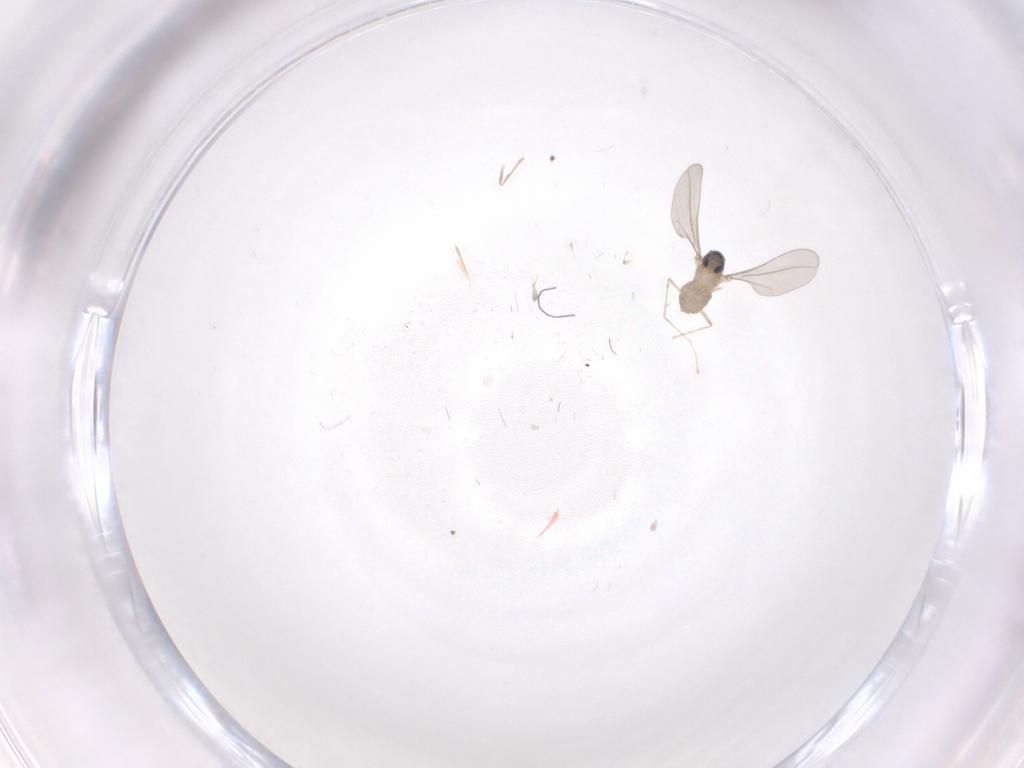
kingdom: Animalia
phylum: Arthropoda
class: Insecta
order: Diptera
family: Cecidomyiidae
